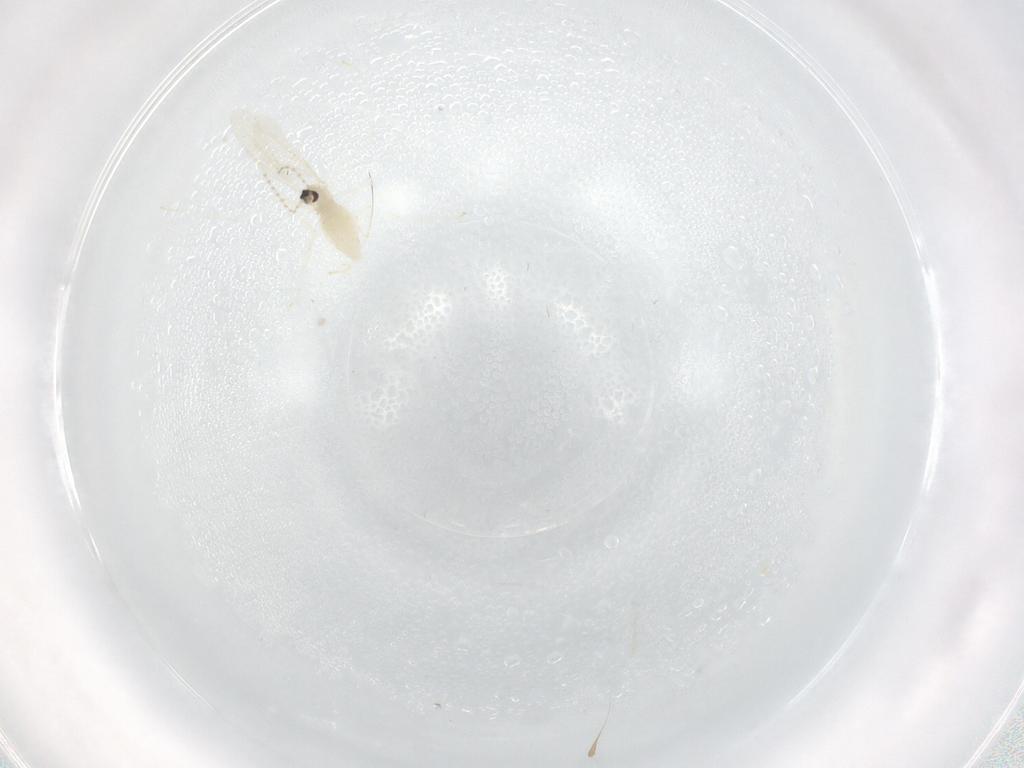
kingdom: Animalia
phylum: Arthropoda
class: Insecta
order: Diptera
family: Cecidomyiidae
